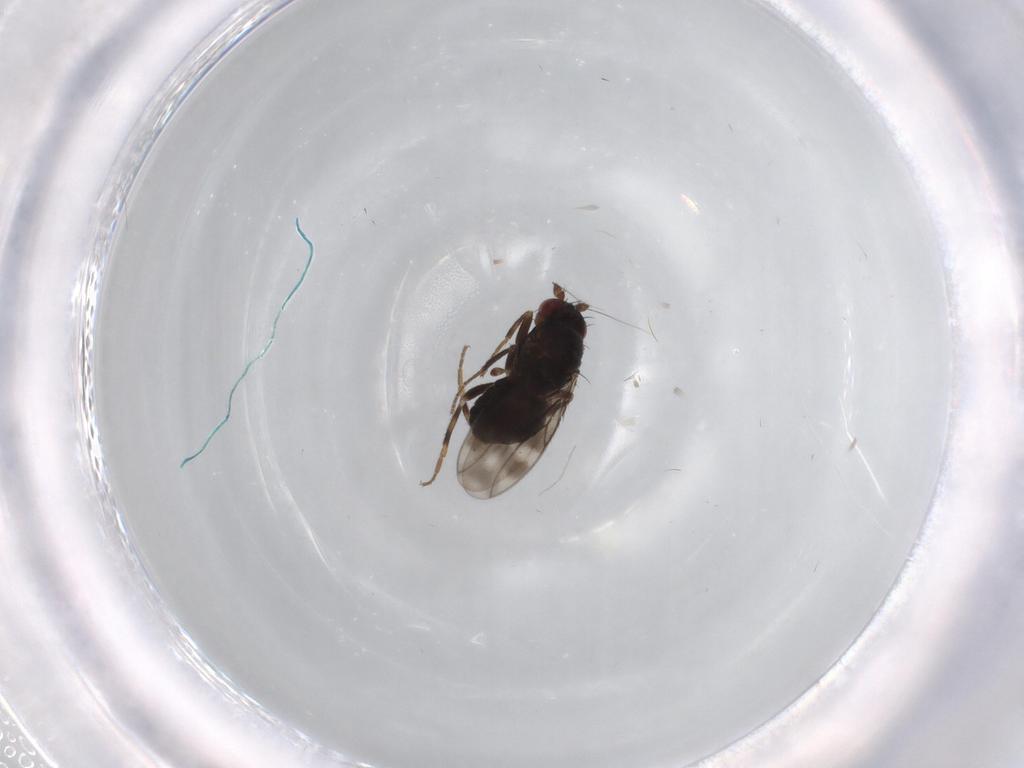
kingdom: Animalia
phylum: Arthropoda
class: Insecta
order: Diptera
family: Sphaeroceridae
